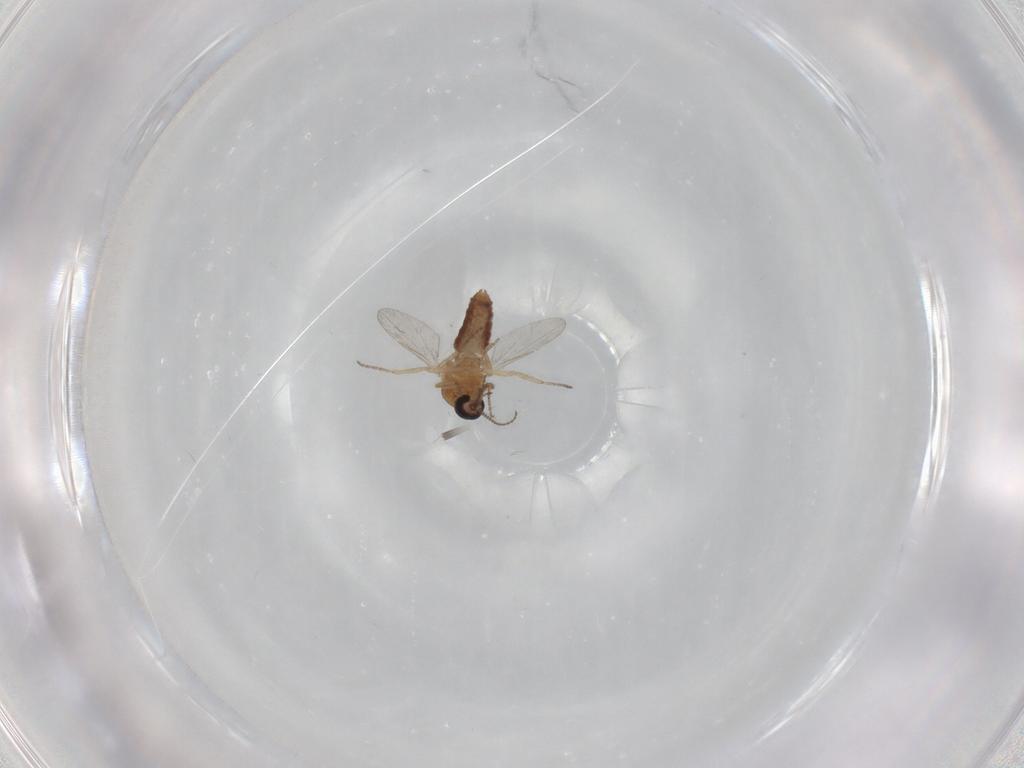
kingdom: Animalia
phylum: Arthropoda
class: Insecta
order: Diptera
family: Ceratopogonidae
